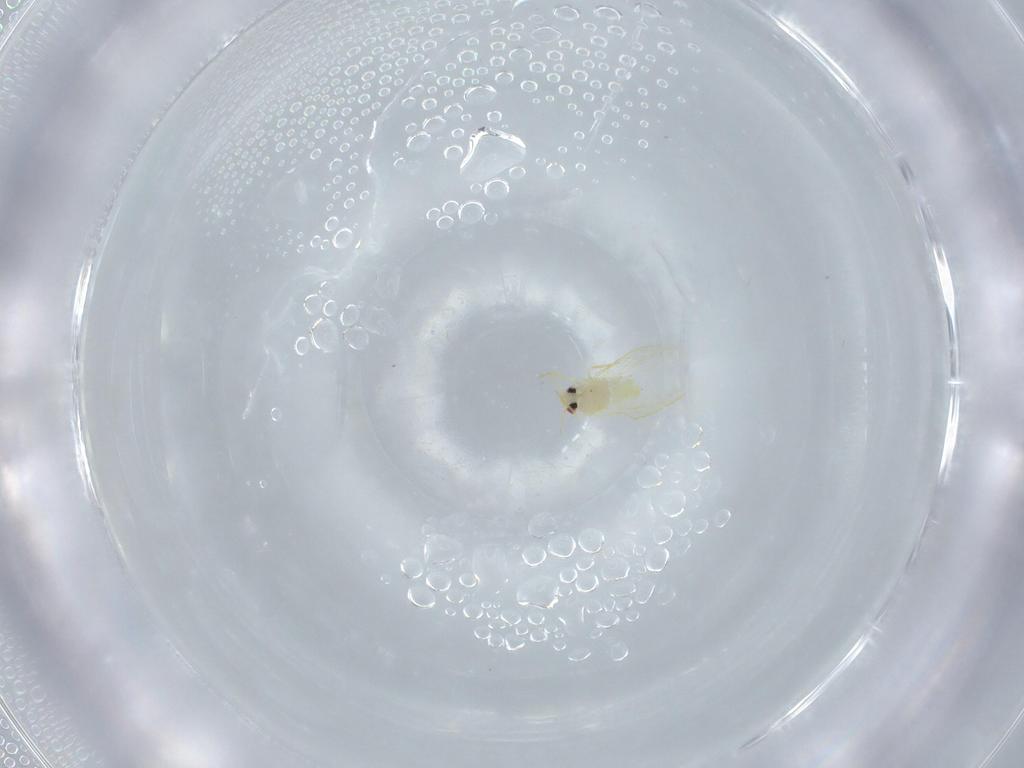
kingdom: Animalia
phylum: Arthropoda
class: Insecta
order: Hemiptera
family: Aleyrodidae
